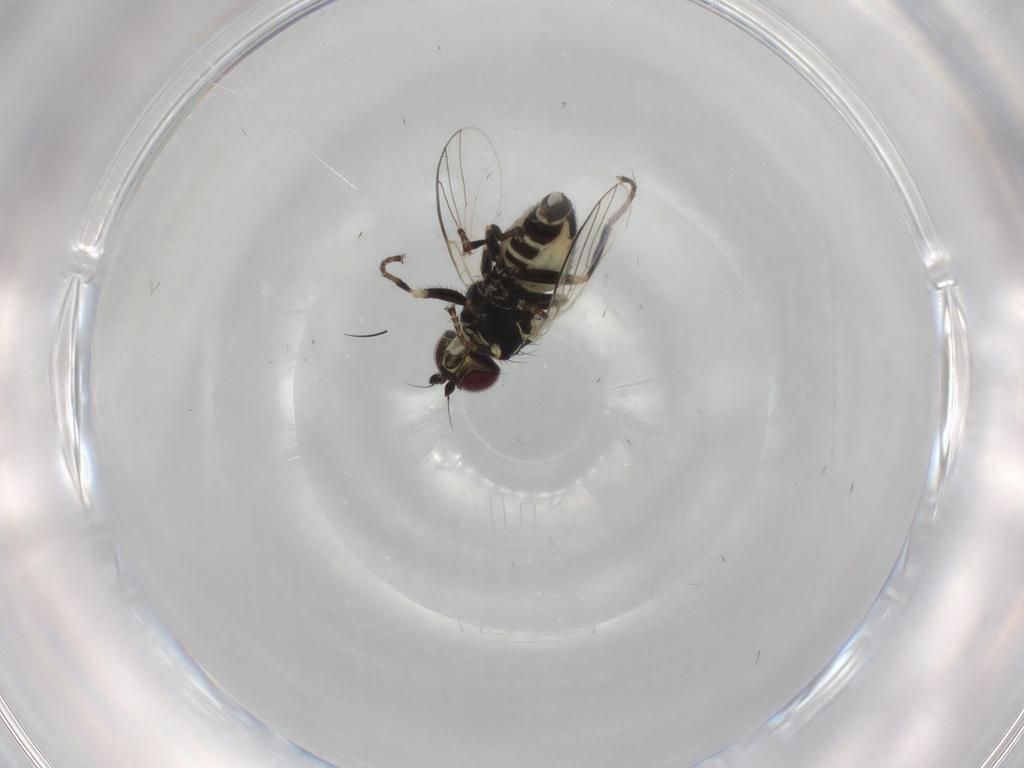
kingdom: Animalia
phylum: Arthropoda
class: Insecta
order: Diptera
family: Agromyzidae
